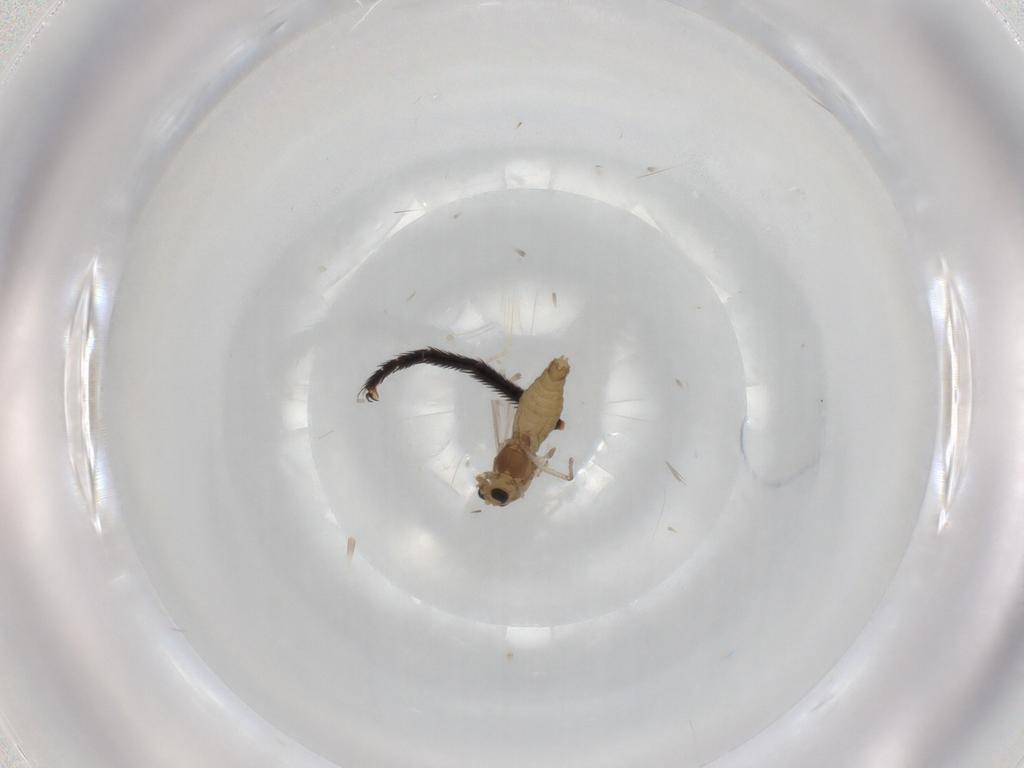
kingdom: Animalia
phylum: Arthropoda
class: Insecta
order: Diptera
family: Chironomidae
